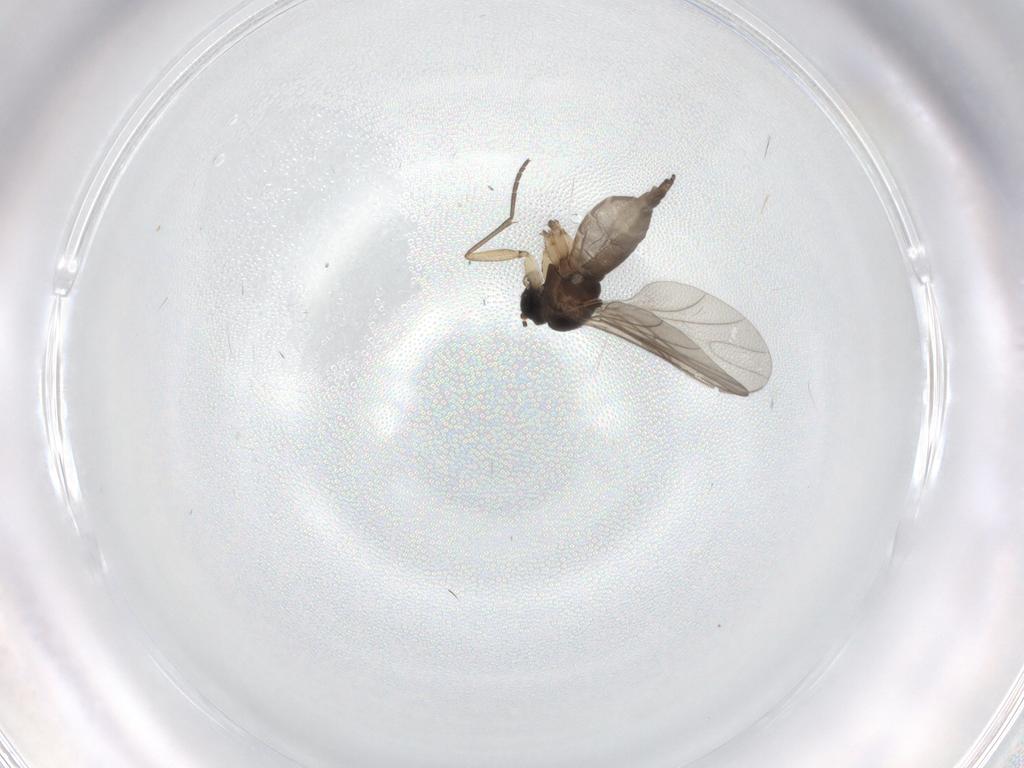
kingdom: Animalia
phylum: Arthropoda
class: Insecta
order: Diptera
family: Sciaridae
